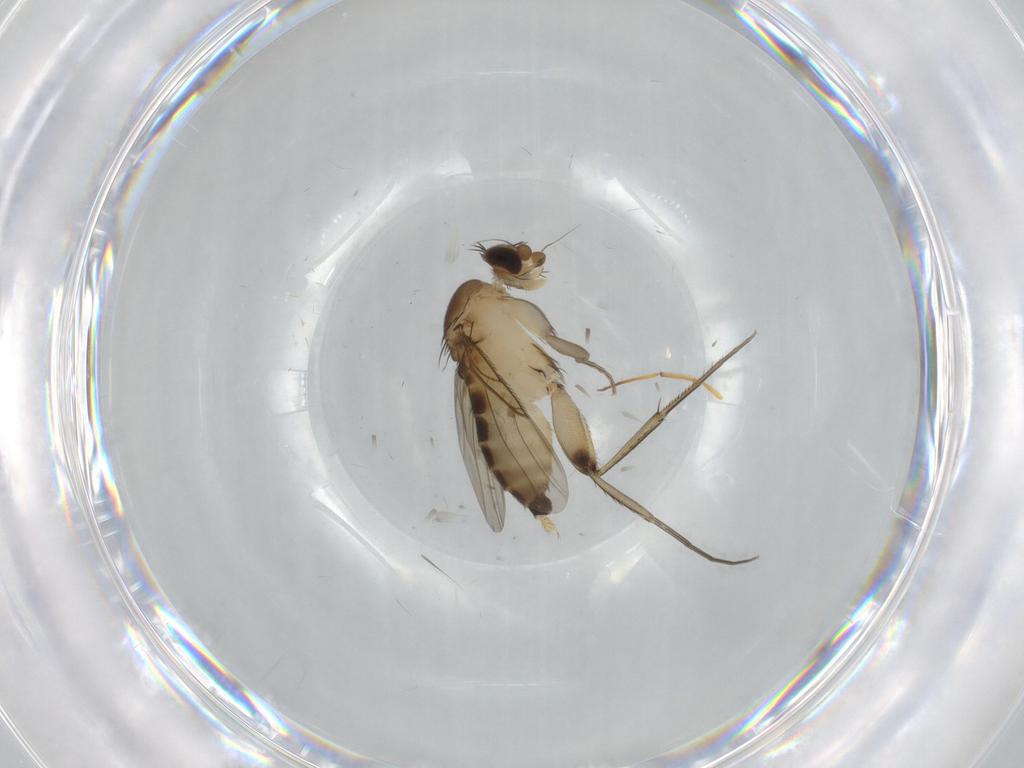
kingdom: Animalia
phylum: Arthropoda
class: Insecta
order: Diptera
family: Phoridae
